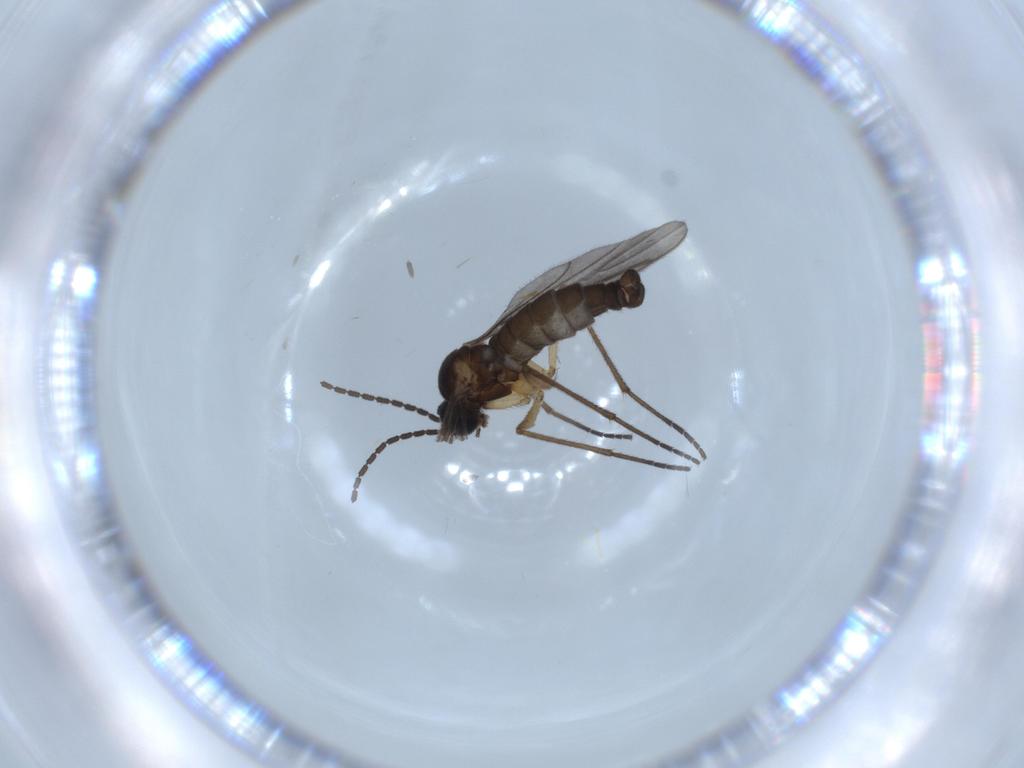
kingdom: Animalia
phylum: Arthropoda
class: Insecta
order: Diptera
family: Sciaridae
